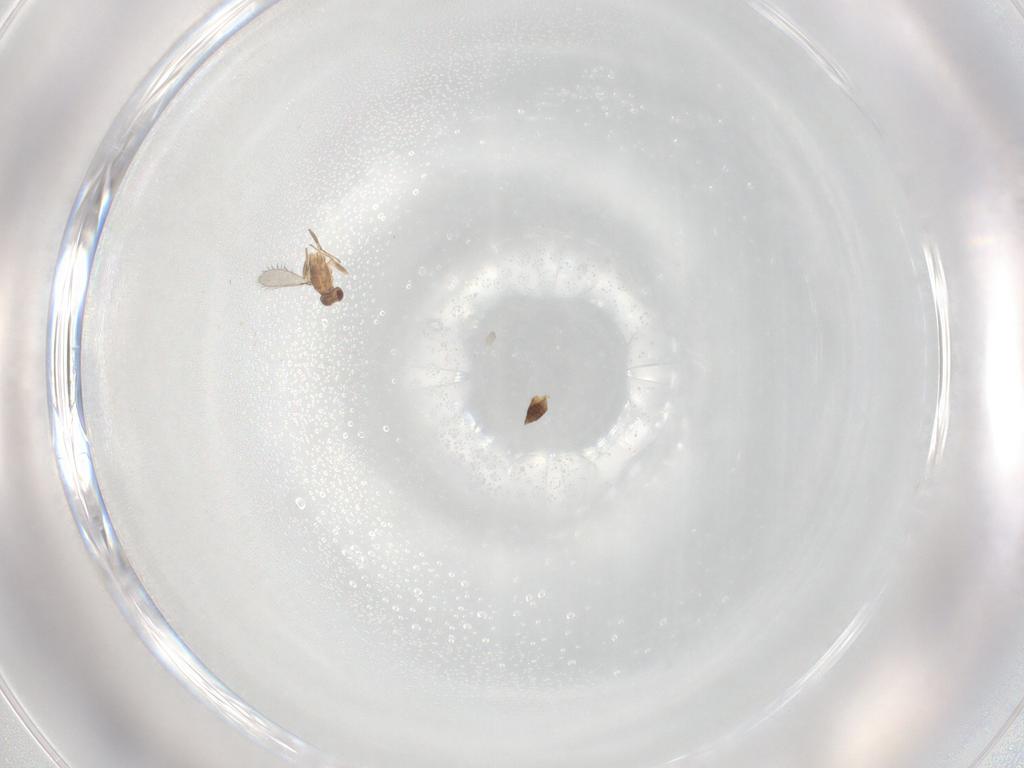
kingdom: Animalia
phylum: Arthropoda
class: Insecta
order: Hymenoptera
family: Mymaridae
